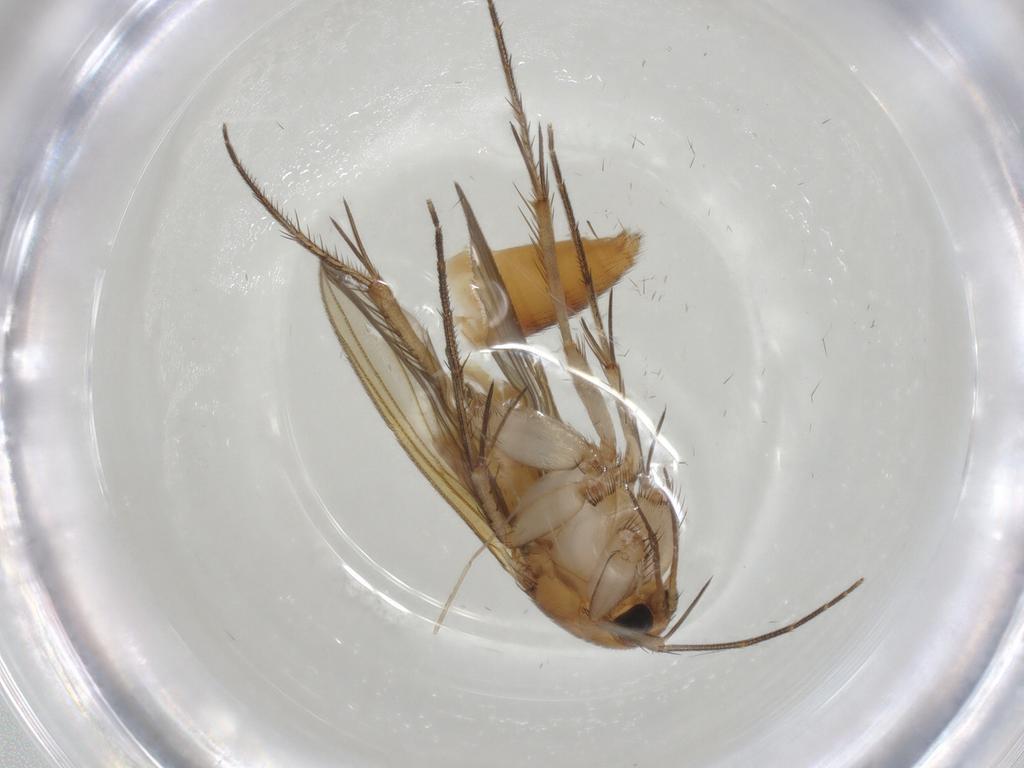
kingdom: Animalia
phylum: Arthropoda
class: Insecta
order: Diptera
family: Mycetophilidae
